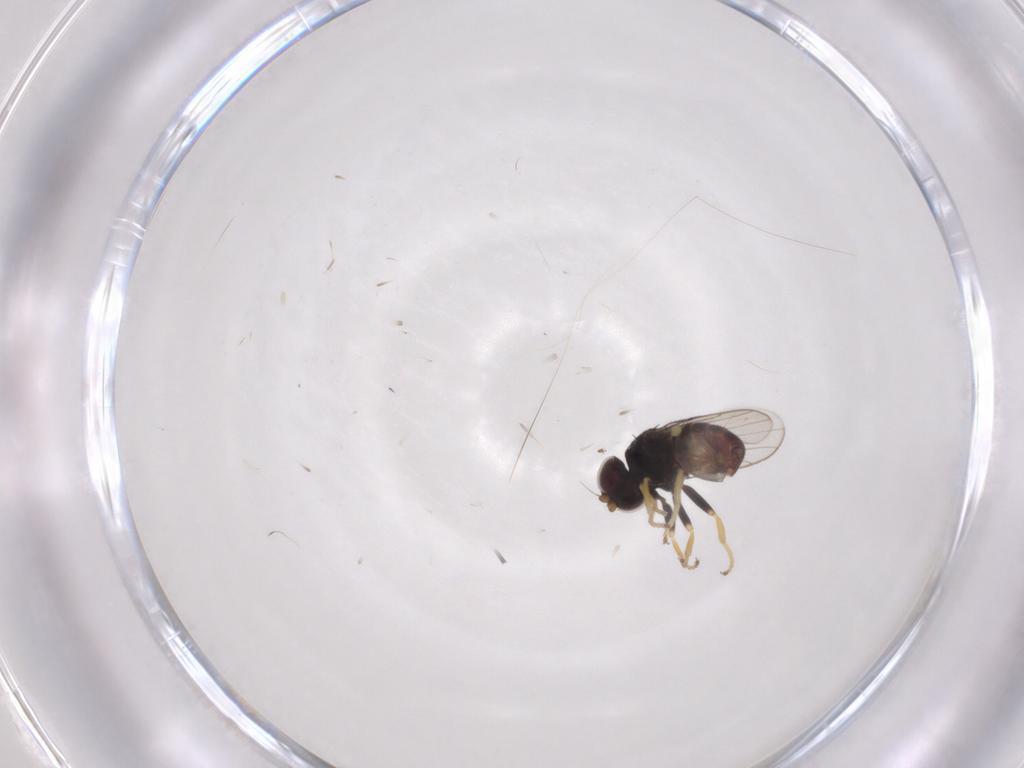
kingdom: Animalia
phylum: Arthropoda
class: Insecta
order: Diptera
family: Chloropidae
